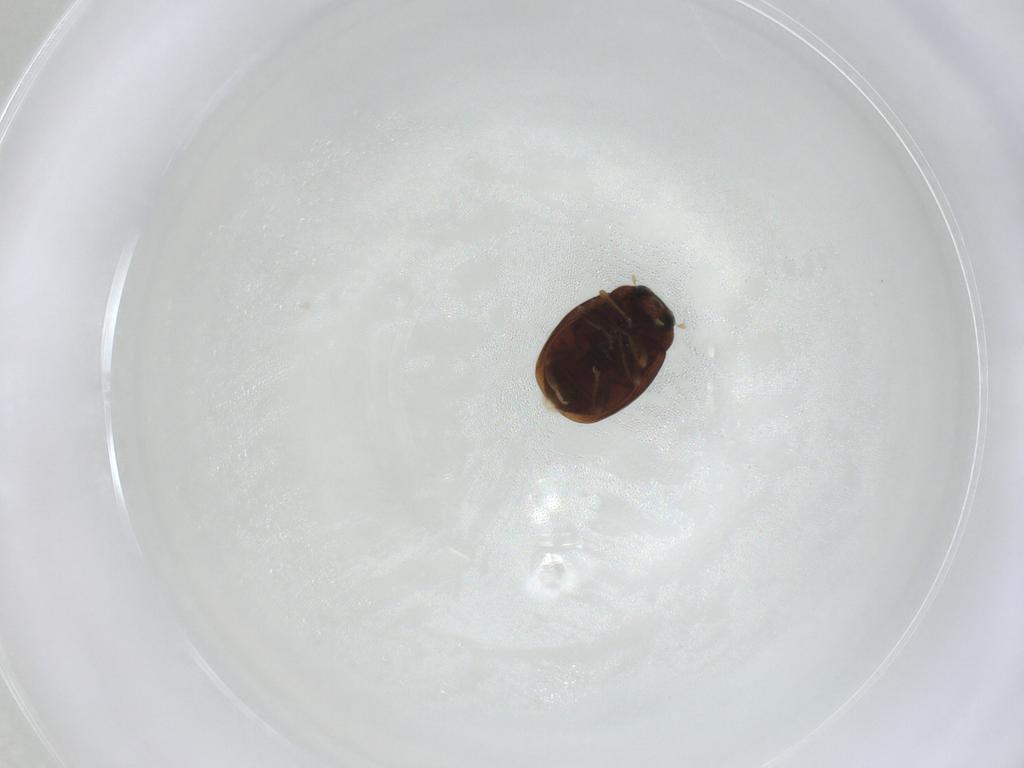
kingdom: Animalia
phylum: Arthropoda
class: Insecta
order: Coleoptera
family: Coccinellidae
